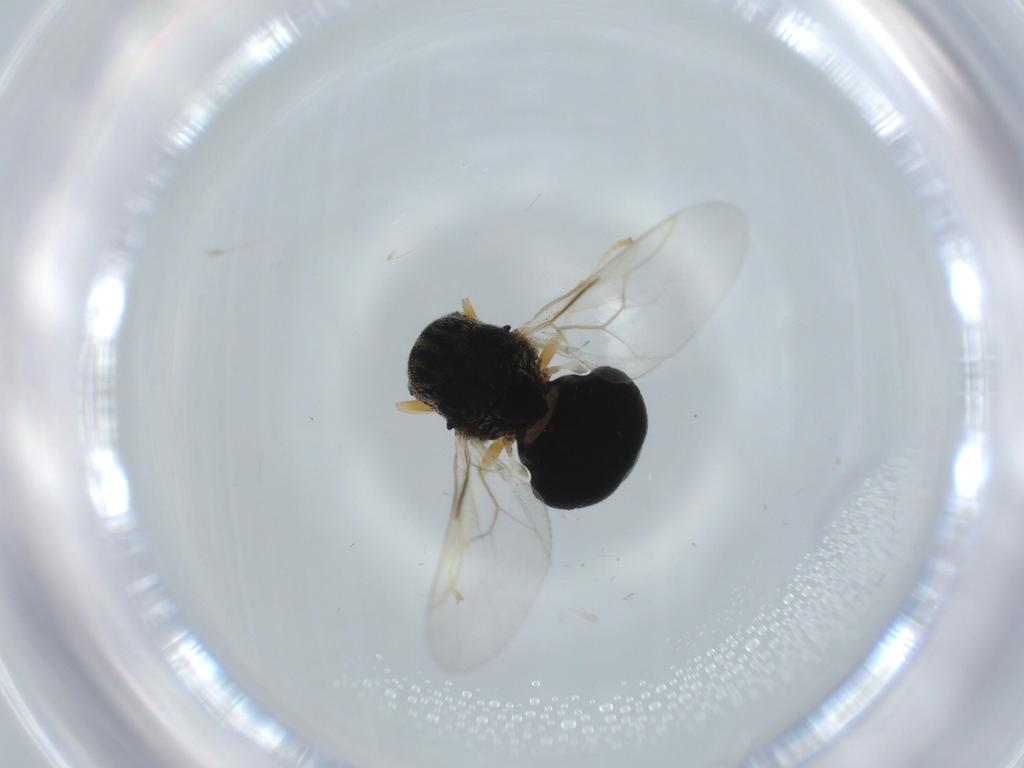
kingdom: Animalia
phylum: Arthropoda
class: Insecta
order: Diptera
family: Stratiomyidae
